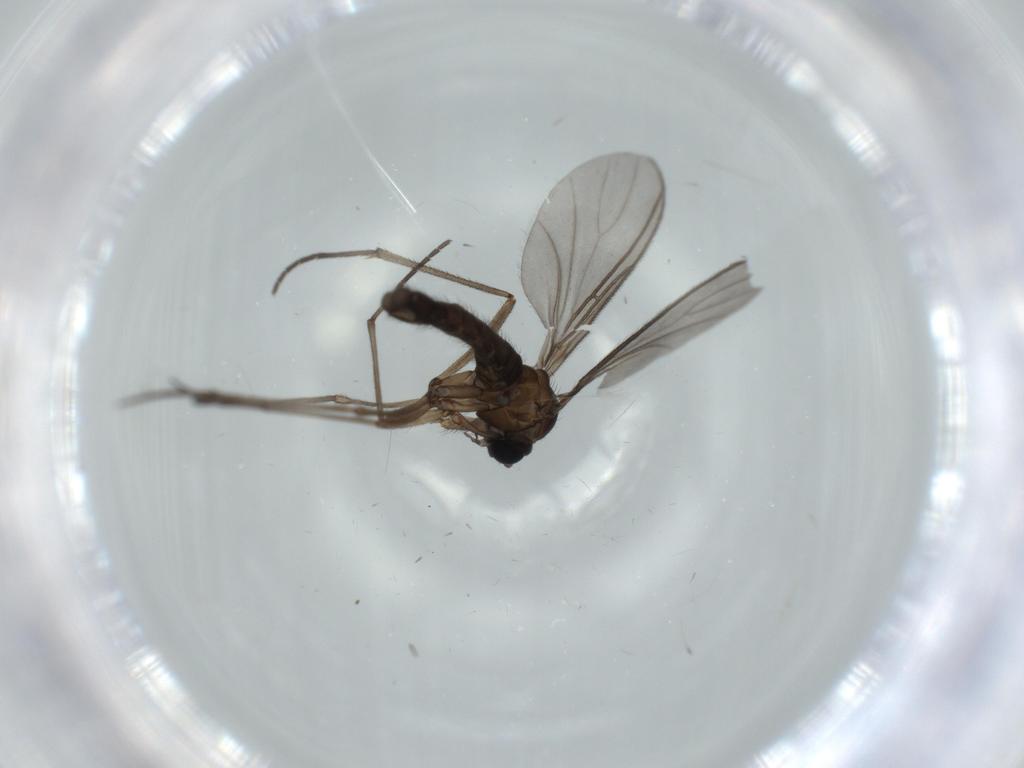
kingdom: Animalia
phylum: Arthropoda
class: Insecta
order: Diptera
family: Sciaridae
